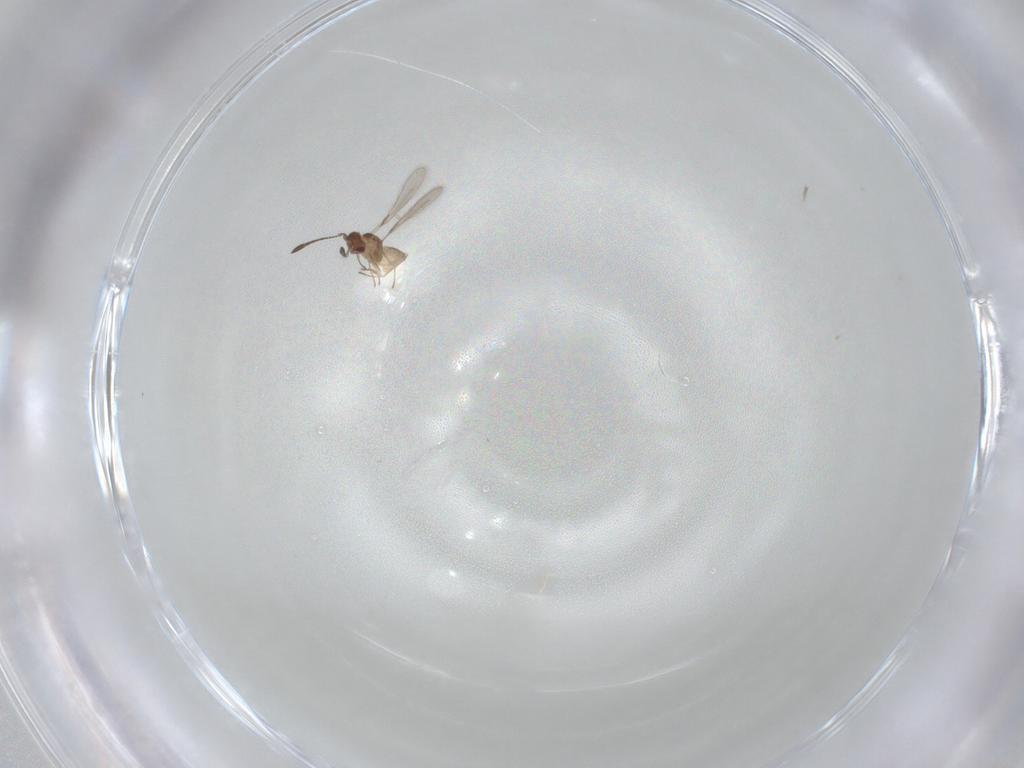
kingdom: Animalia
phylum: Arthropoda
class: Insecta
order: Hymenoptera
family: Mymaridae
